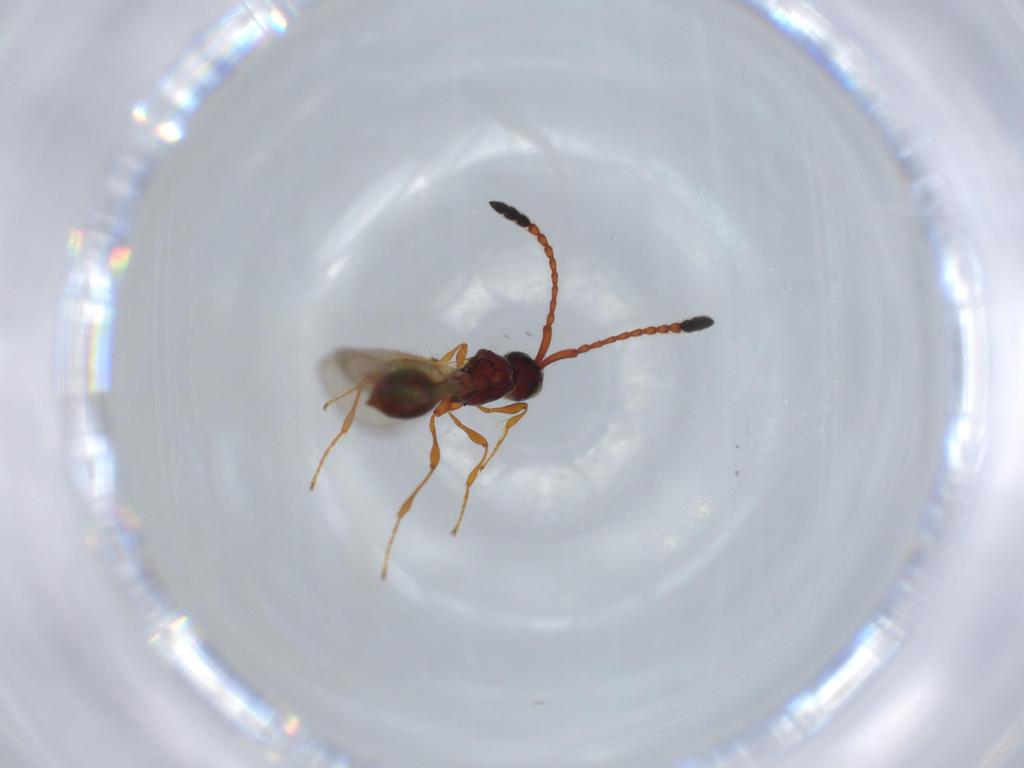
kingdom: Animalia
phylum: Arthropoda
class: Insecta
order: Hymenoptera
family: Diapriidae
